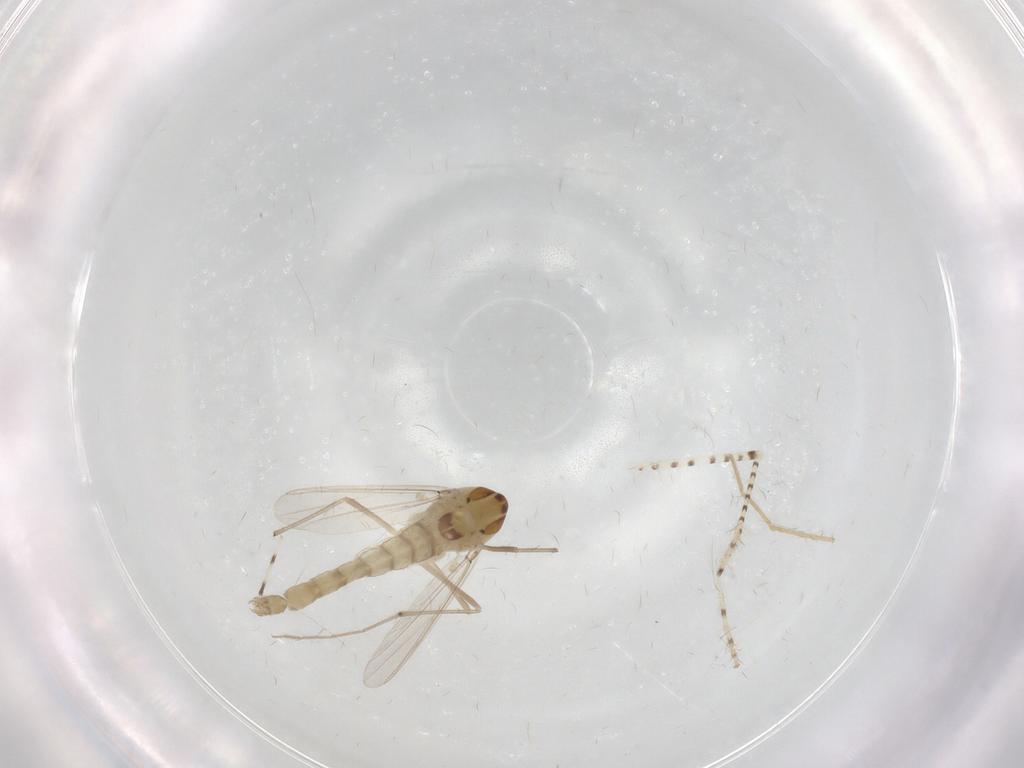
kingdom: Animalia
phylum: Arthropoda
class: Insecta
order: Diptera
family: Chironomidae
